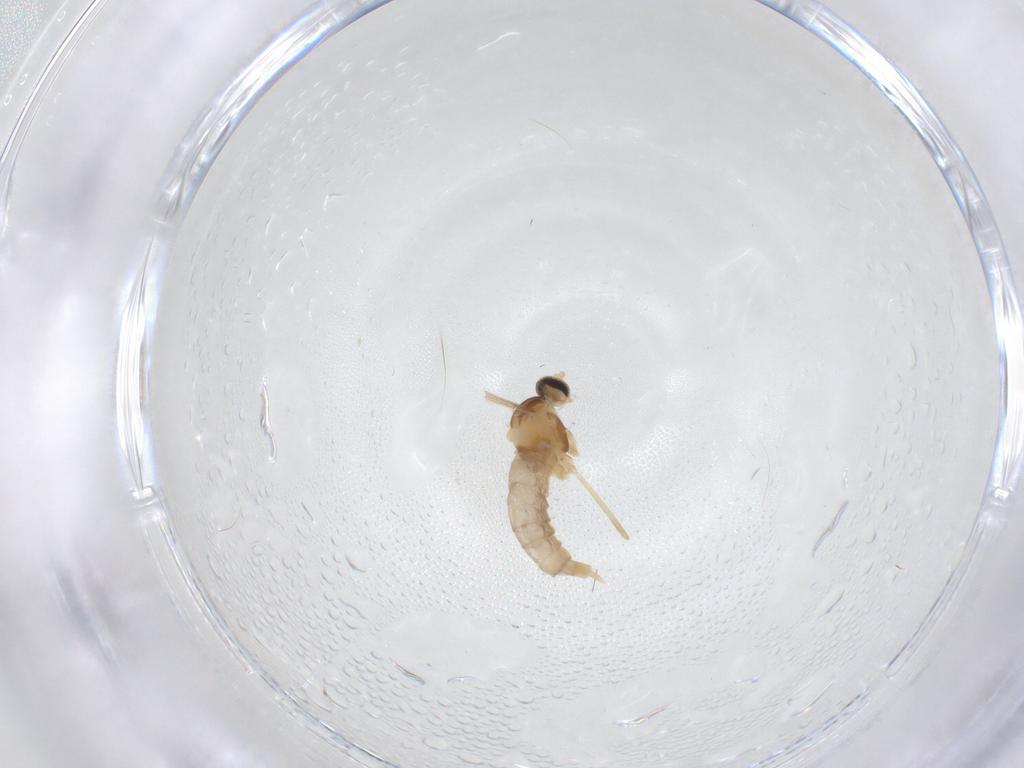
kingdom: Animalia
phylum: Arthropoda
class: Insecta
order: Diptera
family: Cecidomyiidae
